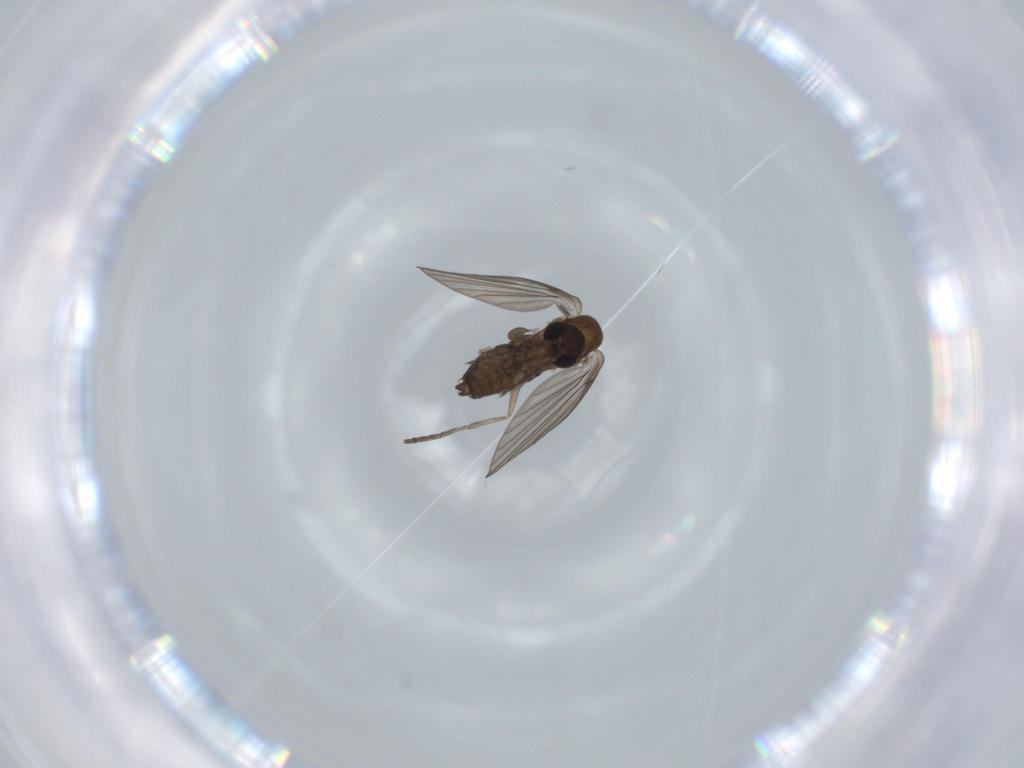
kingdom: Animalia
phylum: Arthropoda
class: Insecta
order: Diptera
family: Psychodidae
